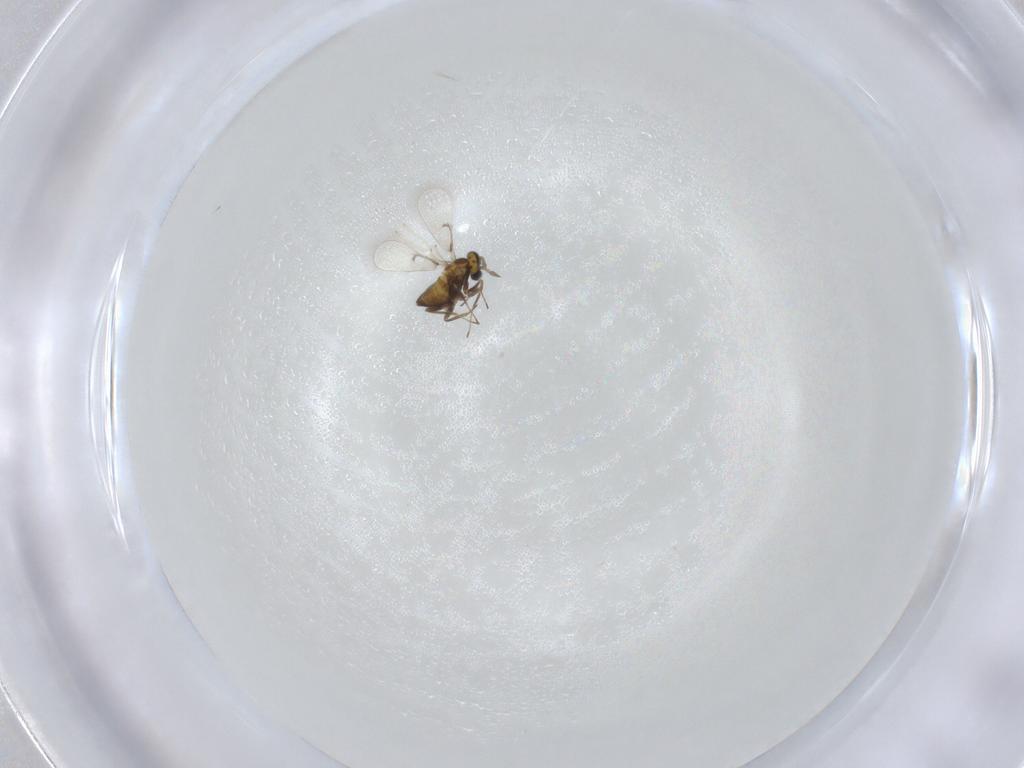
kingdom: Animalia
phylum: Arthropoda
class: Insecta
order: Hymenoptera
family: Trichogrammatidae
